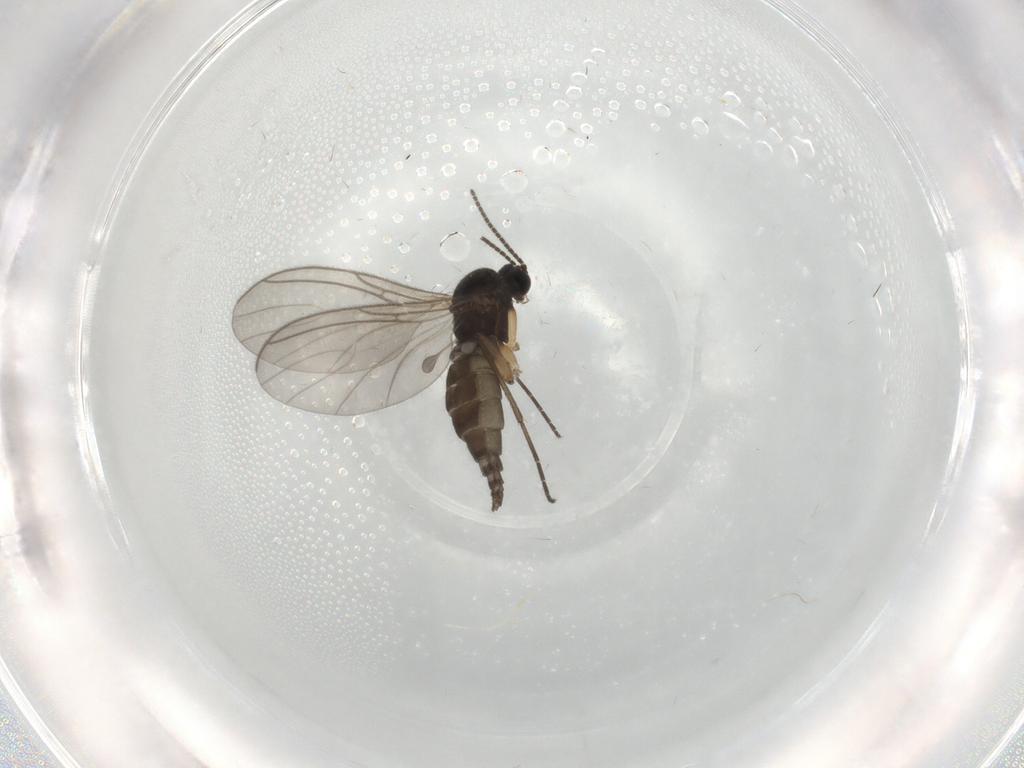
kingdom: Animalia
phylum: Arthropoda
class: Insecta
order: Diptera
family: Sciaridae
